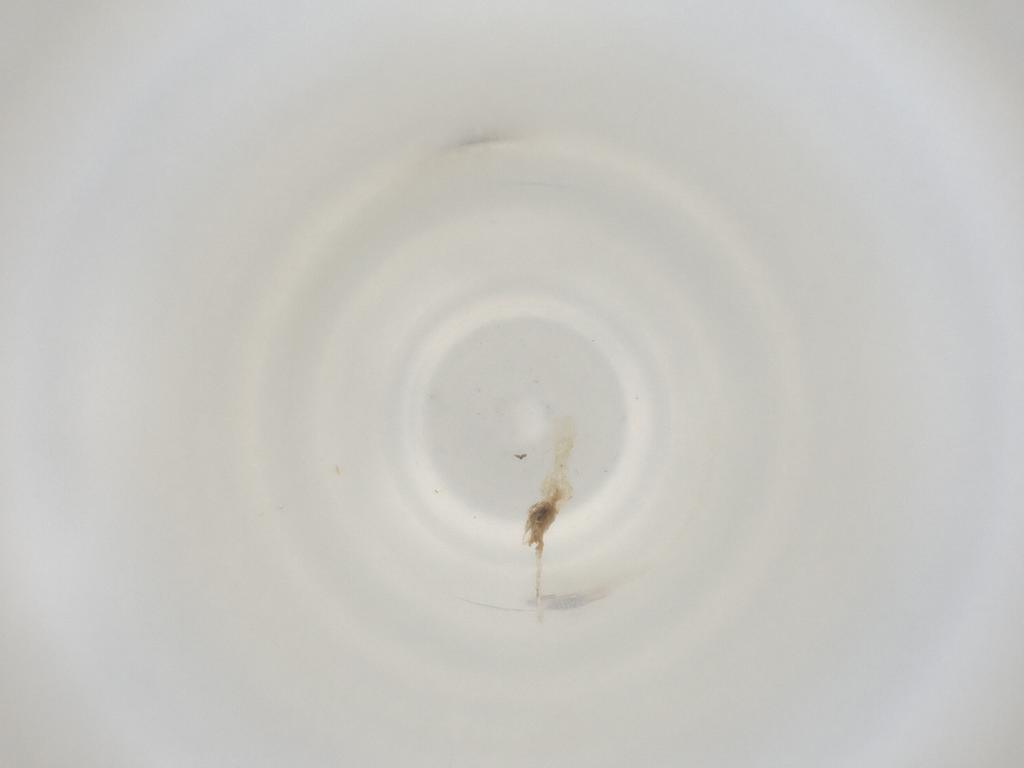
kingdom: Animalia
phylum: Arthropoda
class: Insecta
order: Diptera
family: Cecidomyiidae
